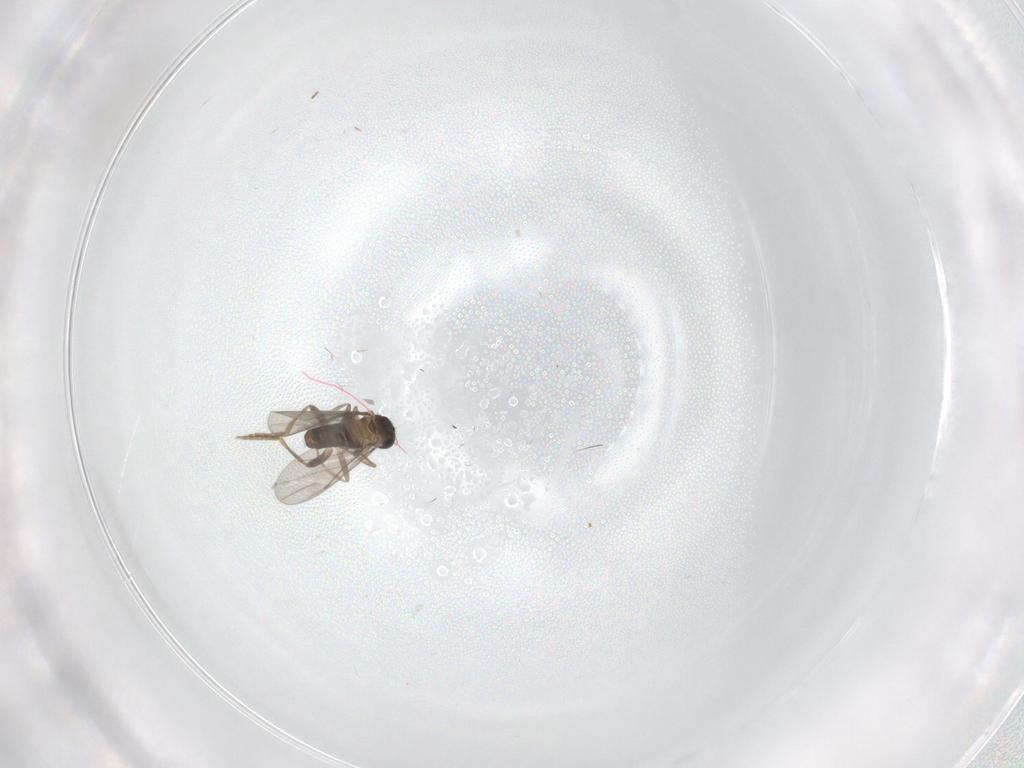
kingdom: Animalia
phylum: Arthropoda
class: Insecta
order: Diptera
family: Chironomidae
